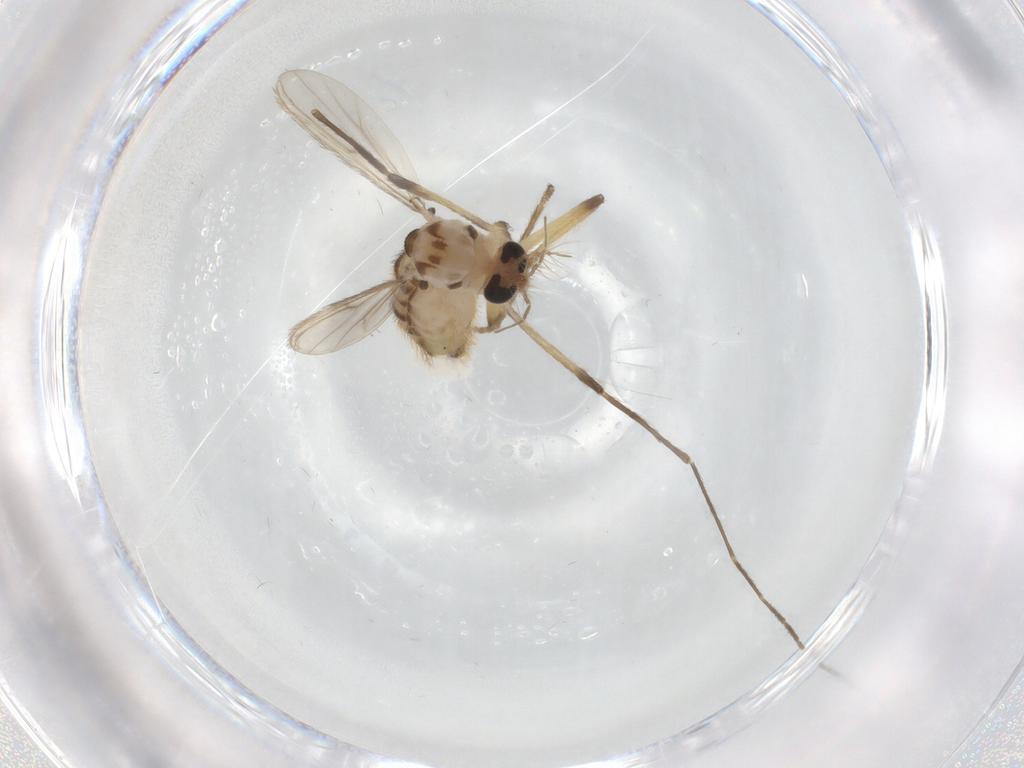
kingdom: Animalia
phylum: Arthropoda
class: Insecta
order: Diptera
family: Chironomidae
